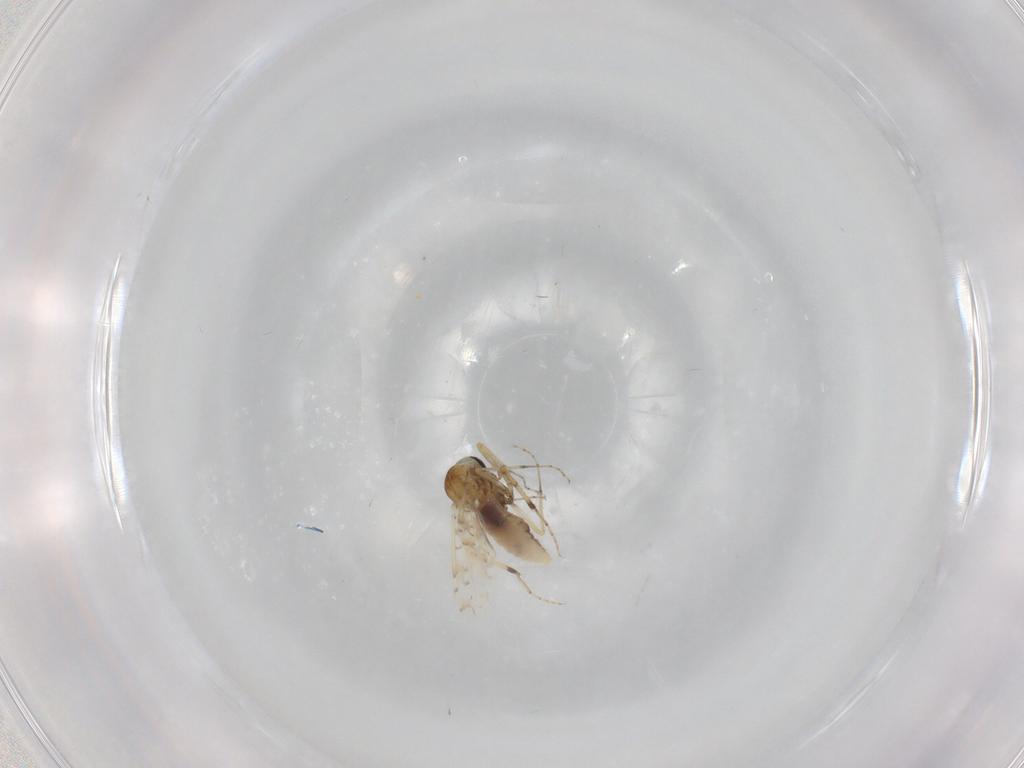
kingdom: Animalia
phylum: Arthropoda
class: Insecta
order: Diptera
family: Ceratopogonidae
